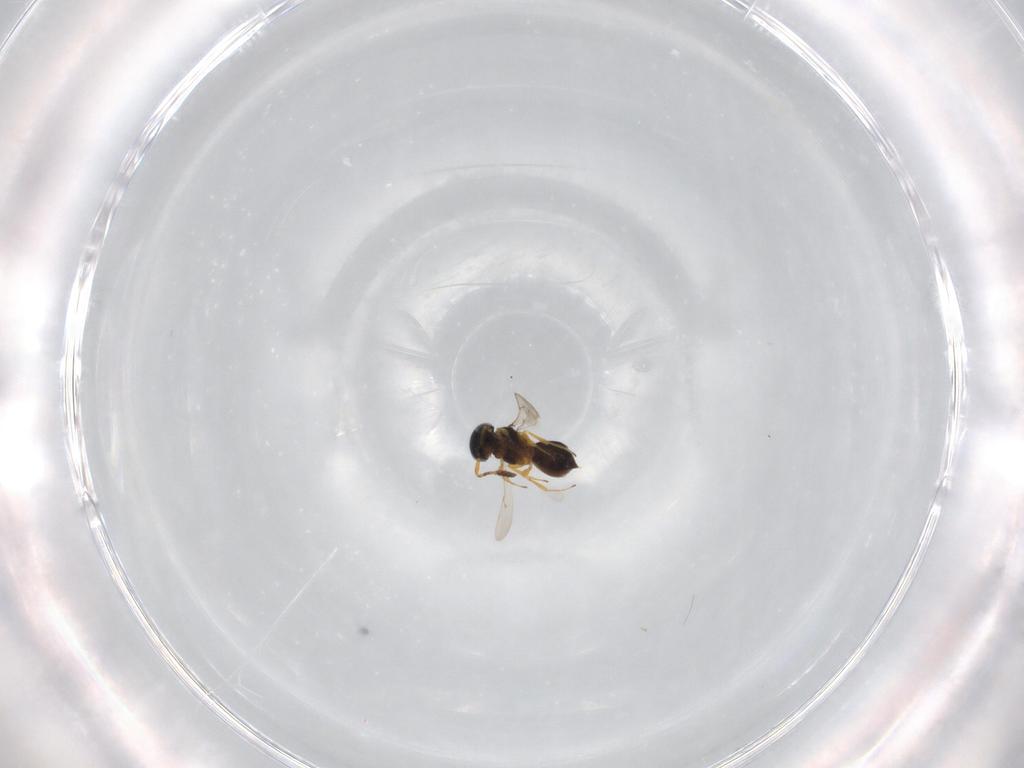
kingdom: Animalia
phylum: Arthropoda
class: Insecta
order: Hymenoptera
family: Scelionidae
